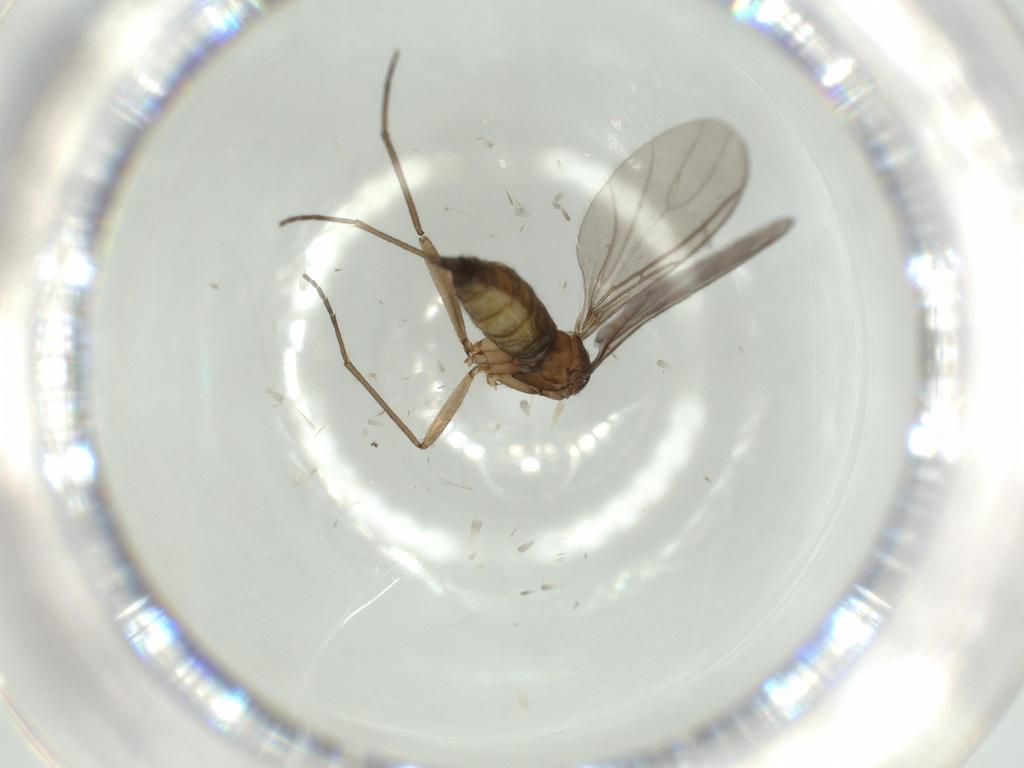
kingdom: Animalia
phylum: Arthropoda
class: Insecta
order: Diptera
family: Sciaridae
